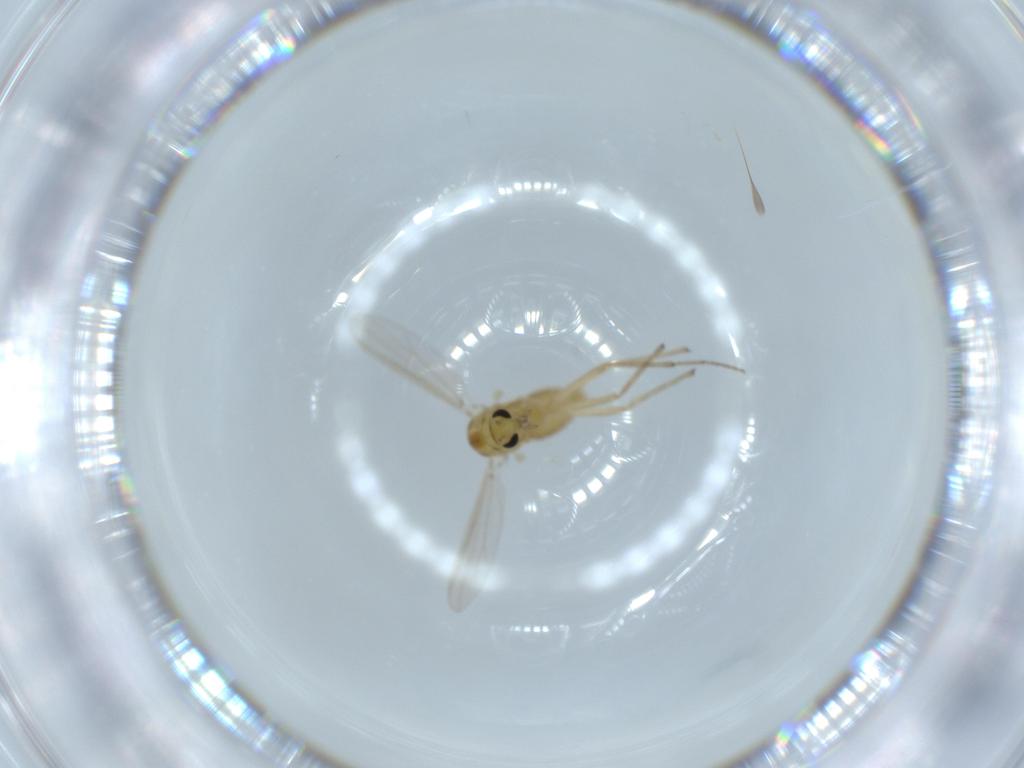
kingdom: Animalia
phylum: Arthropoda
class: Insecta
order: Diptera
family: Chironomidae
